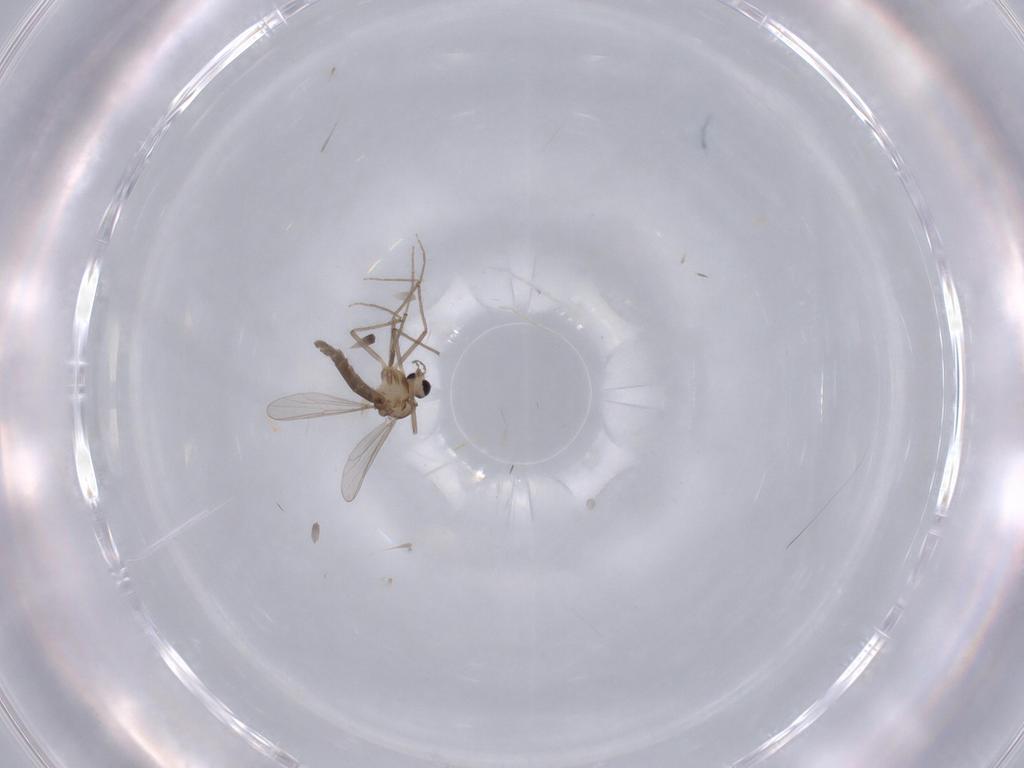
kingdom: Animalia
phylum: Arthropoda
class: Insecta
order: Diptera
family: Chironomidae
